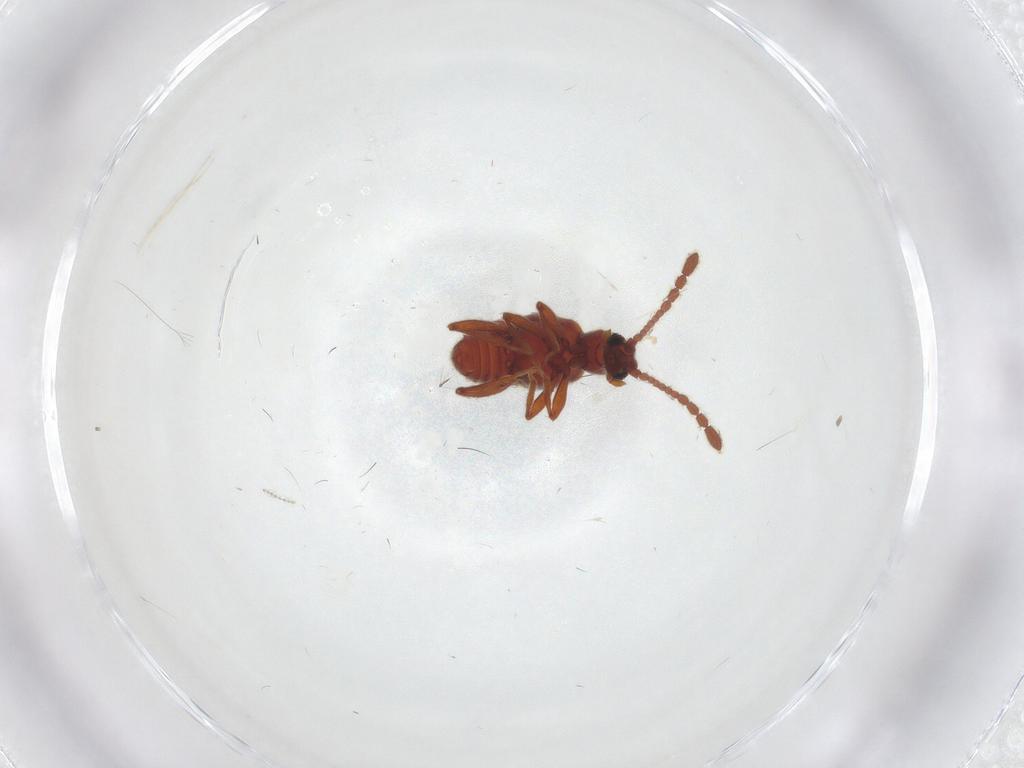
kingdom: Animalia
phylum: Arthropoda
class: Insecta
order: Coleoptera
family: Staphylinidae
